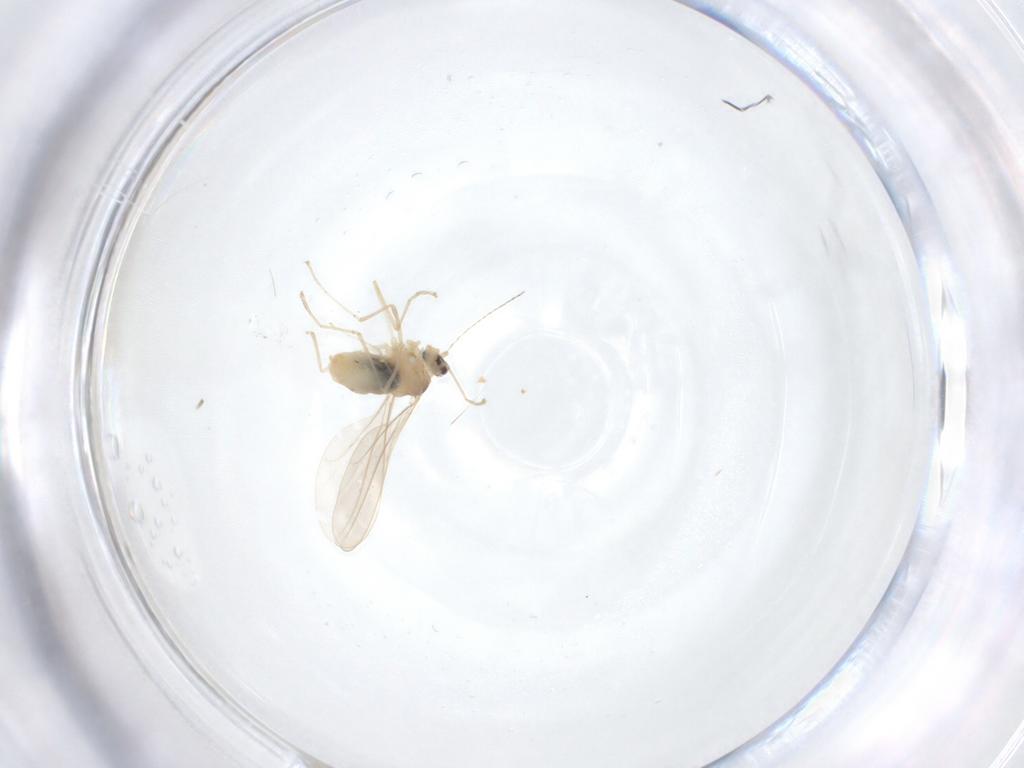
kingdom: Animalia
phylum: Arthropoda
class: Insecta
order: Diptera
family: Cecidomyiidae
